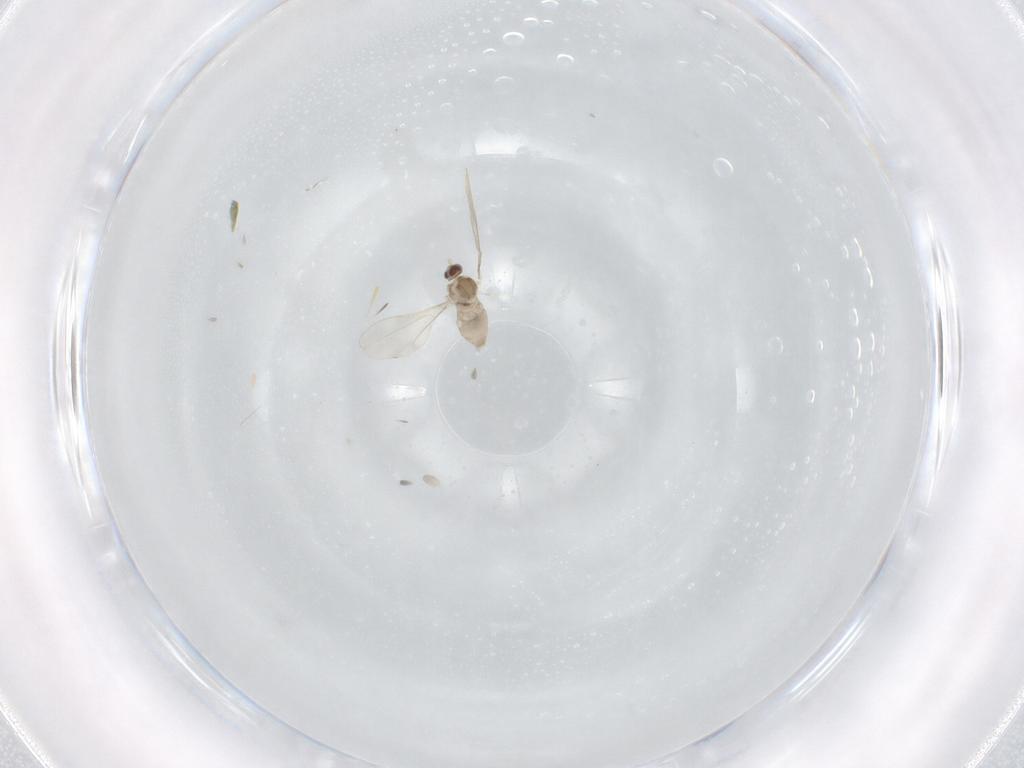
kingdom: Animalia
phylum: Arthropoda
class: Insecta
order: Diptera
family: Cecidomyiidae
